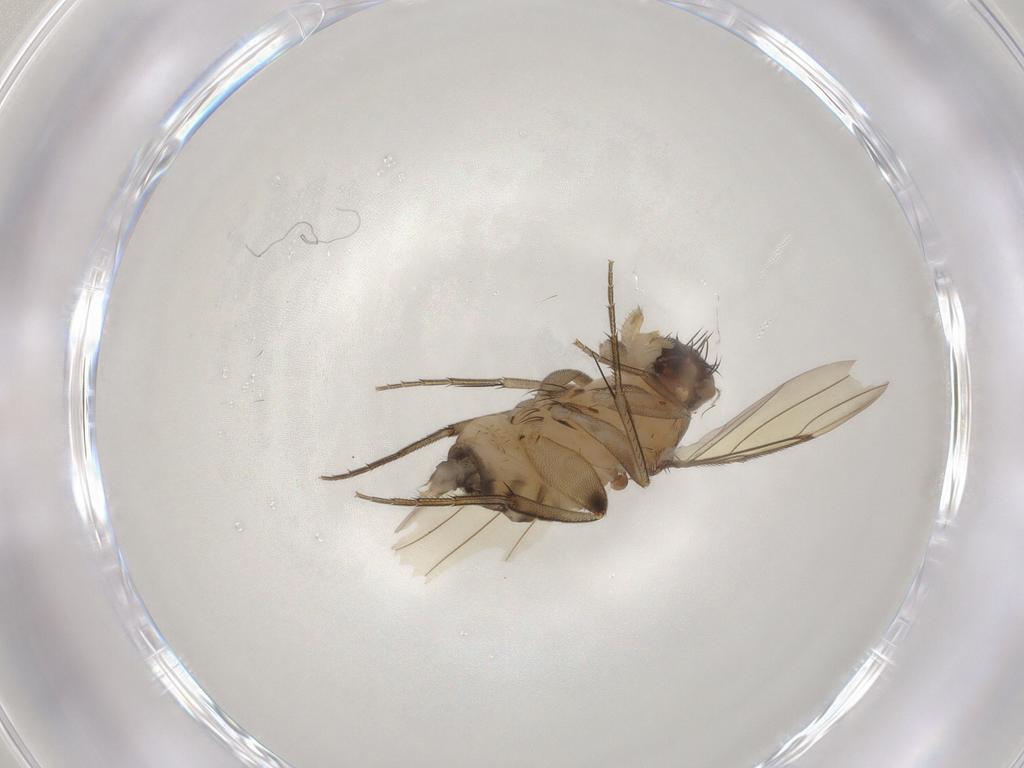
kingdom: Animalia
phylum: Arthropoda
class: Insecta
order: Diptera
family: Phoridae
